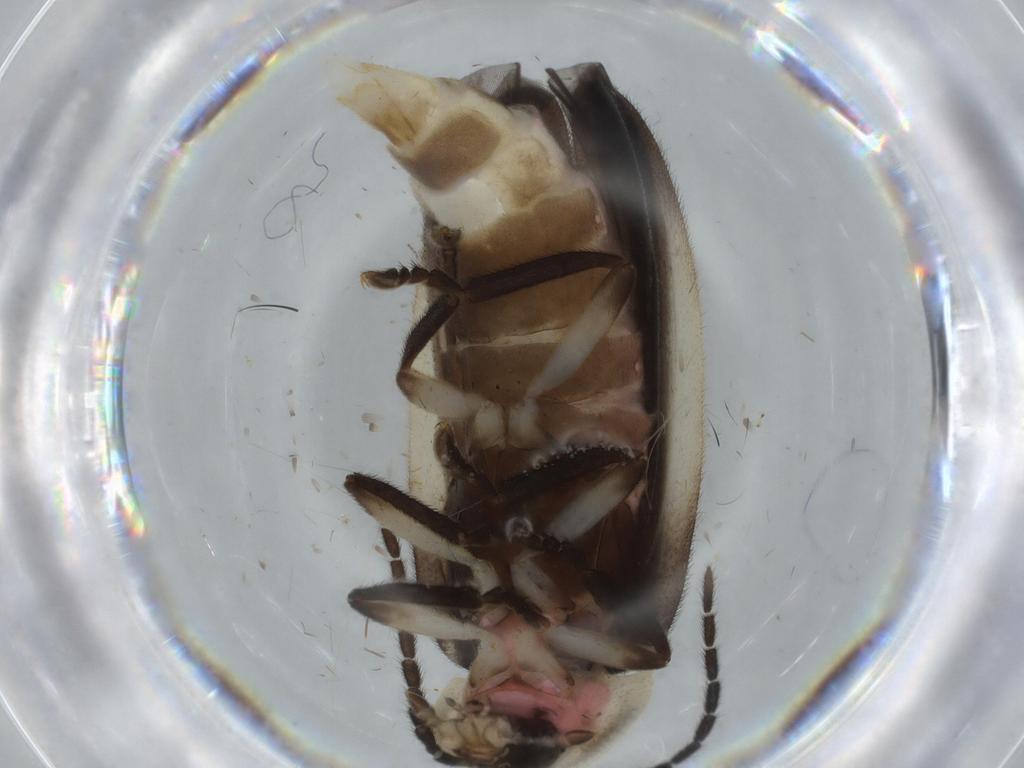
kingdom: Animalia
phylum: Arthropoda
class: Insecta
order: Coleoptera
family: Lampyridae
